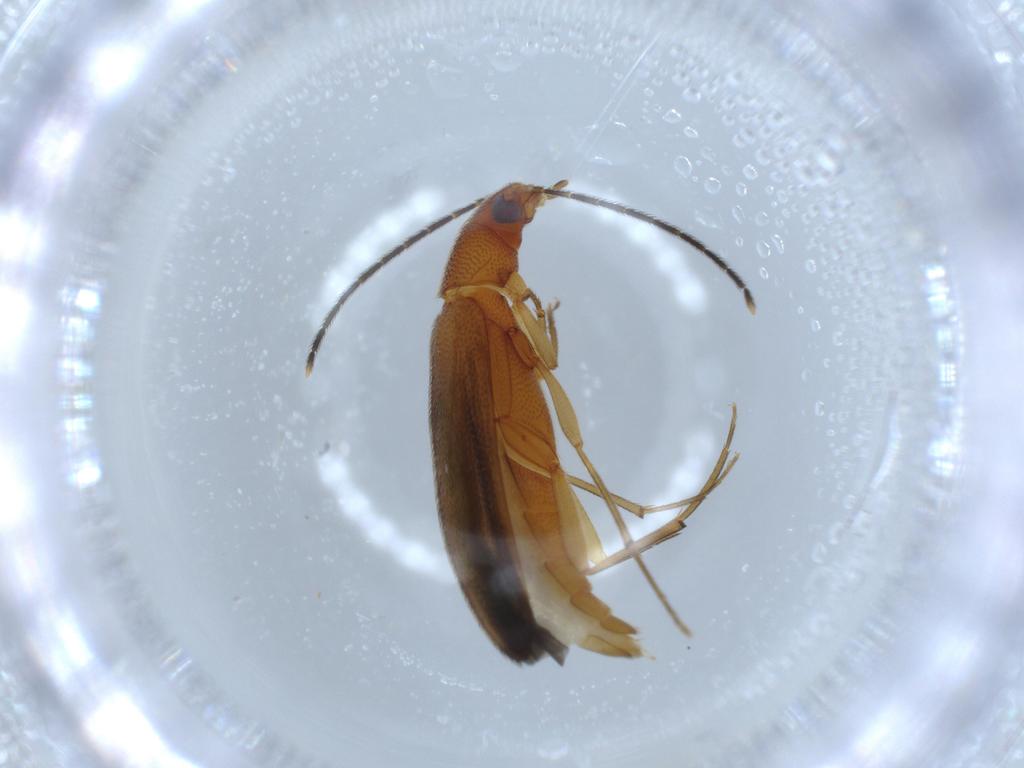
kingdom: Animalia
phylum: Arthropoda
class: Insecta
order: Coleoptera
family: Melandryidae
